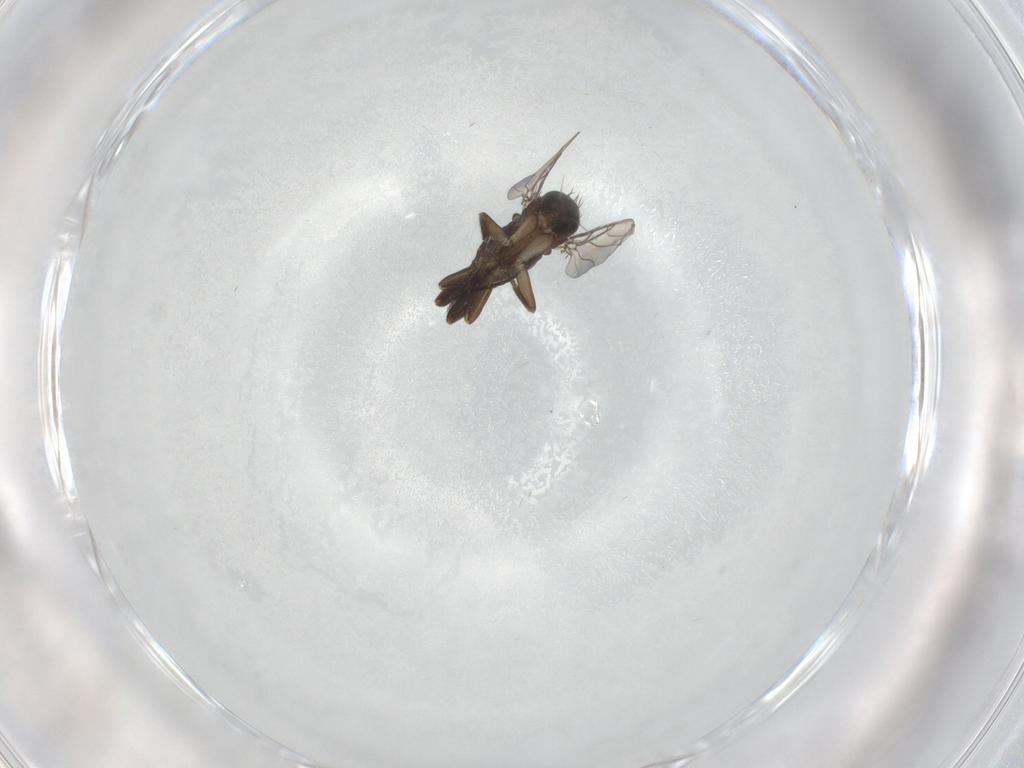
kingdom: Animalia
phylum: Arthropoda
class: Insecta
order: Diptera
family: Phoridae
